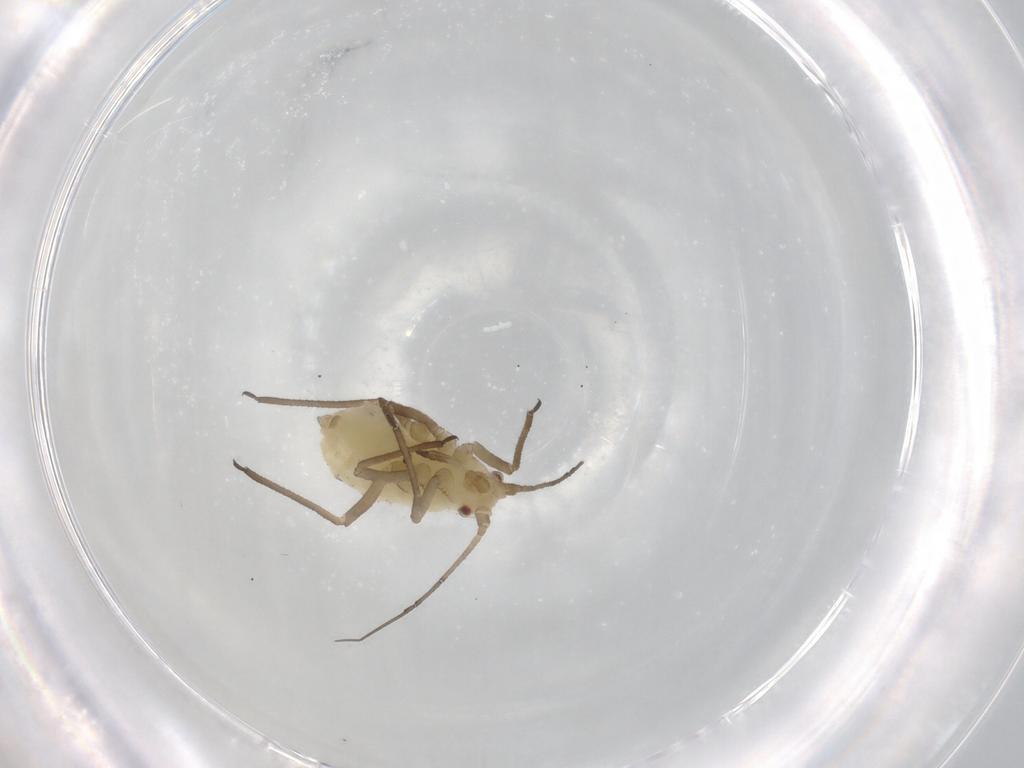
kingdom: Animalia
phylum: Arthropoda
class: Insecta
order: Hemiptera
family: Aphididae
